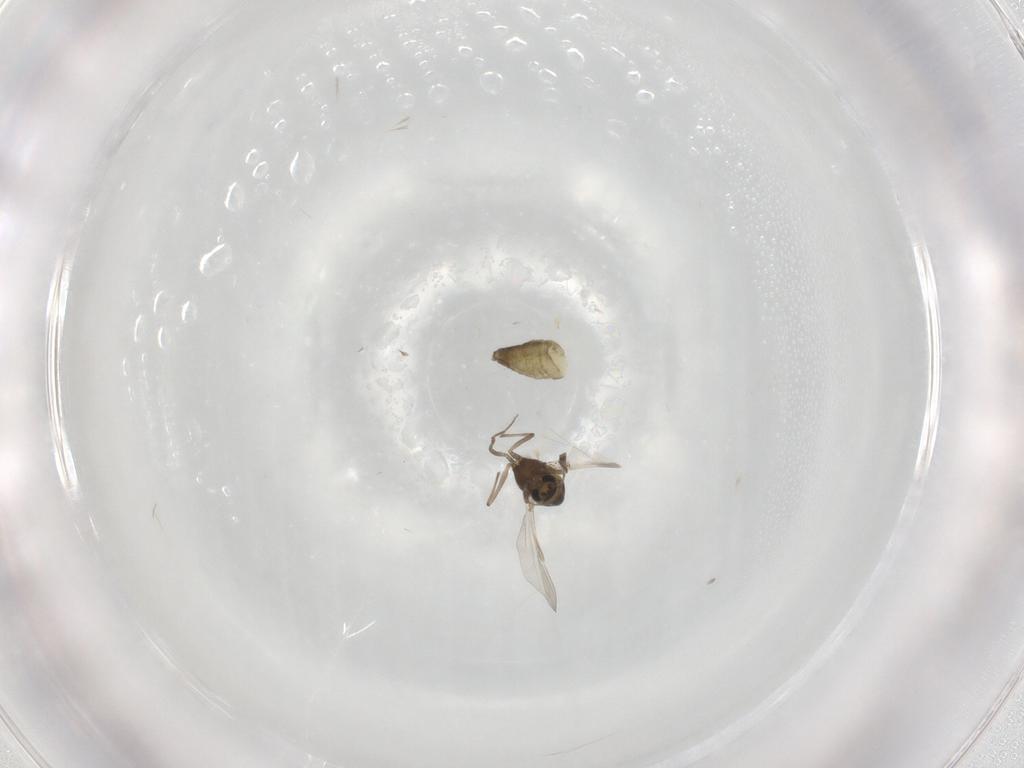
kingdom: Animalia
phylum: Arthropoda
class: Insecta
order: Diptera
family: Chironomidae
